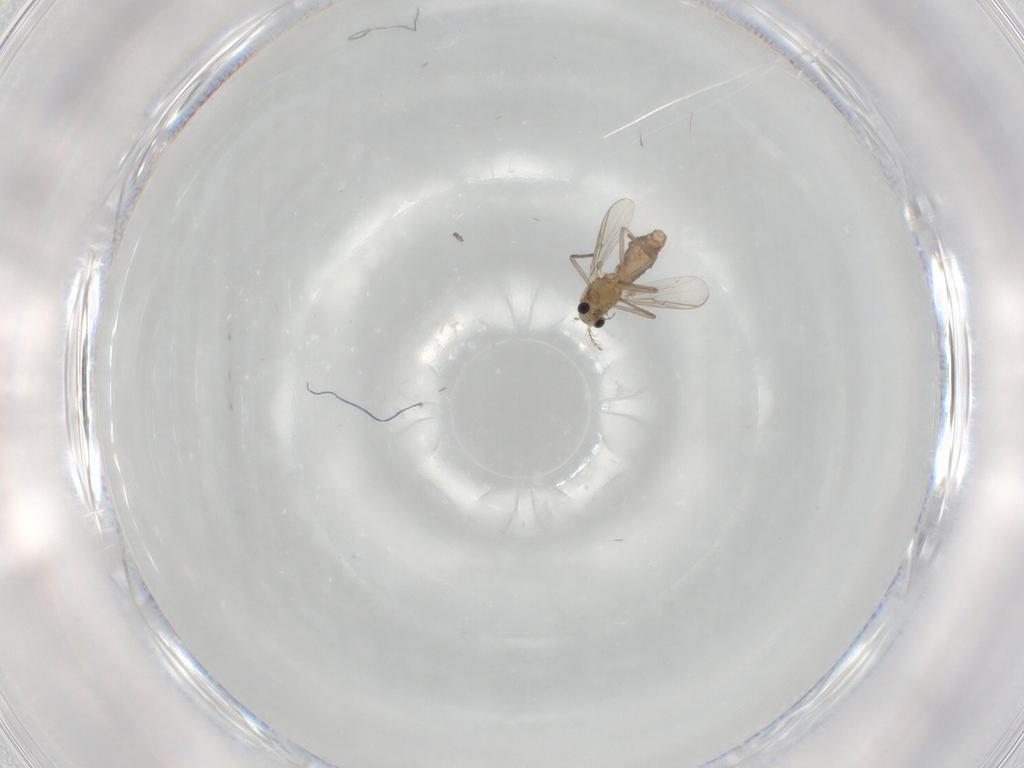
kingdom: Animalia
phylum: Arthropoda
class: Insecta
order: Diptera
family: Chironomidae
